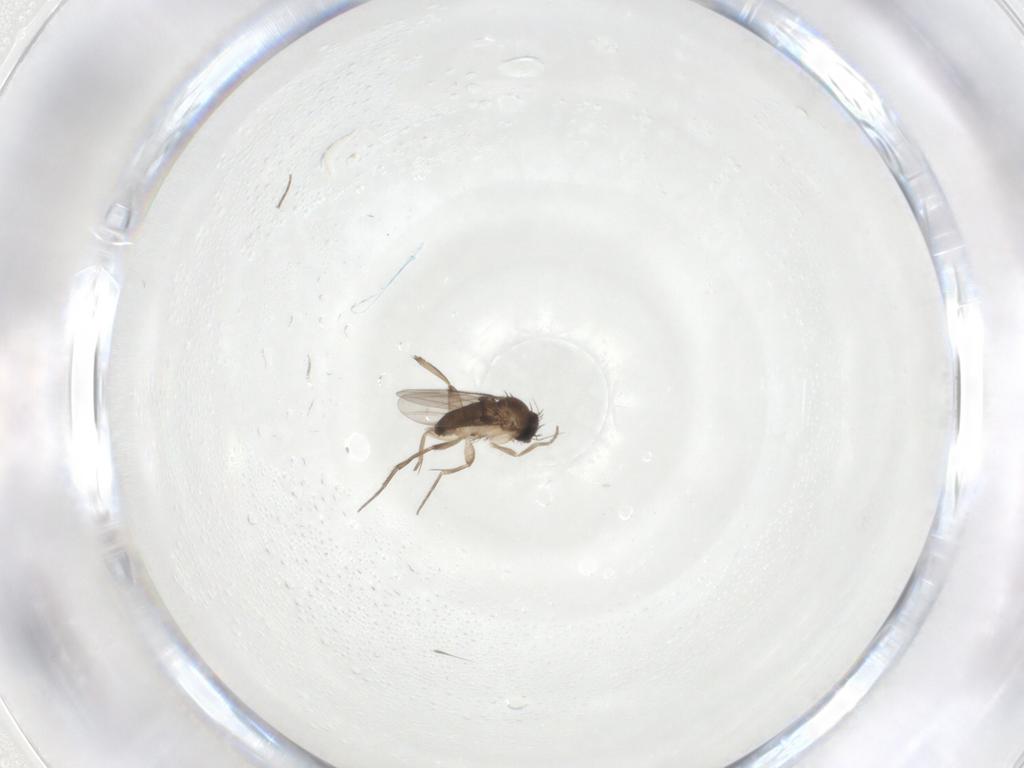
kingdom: Animalia
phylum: Arthropoda
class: Insecta
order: Diptera
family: Phoridae
